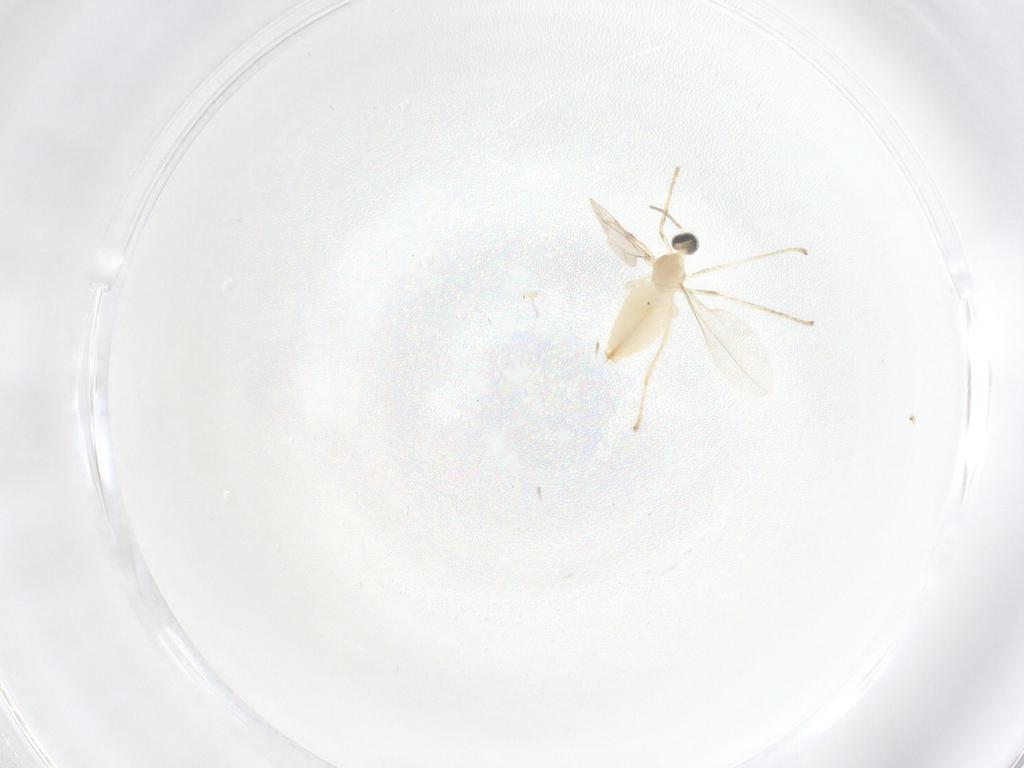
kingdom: Animalia
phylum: Arthropoda
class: Insecta
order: Diptera
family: Cecidomyiidae
